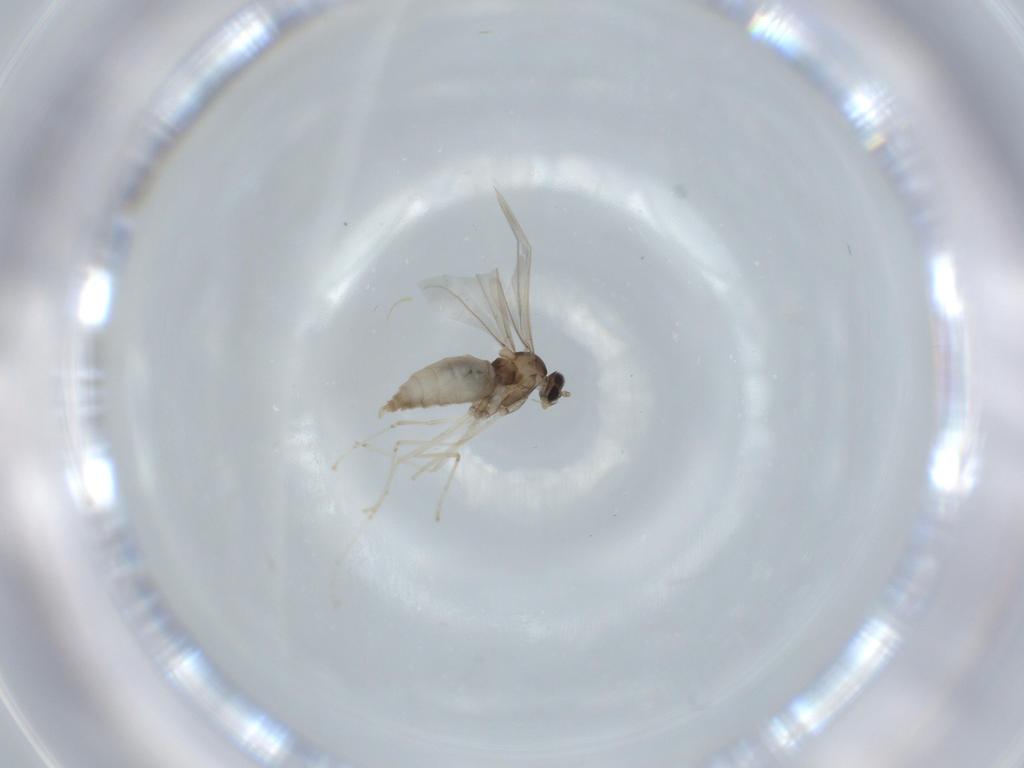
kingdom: Animalia
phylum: Arthropoda
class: Insecta
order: Diptera
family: Cecidomyiidae
